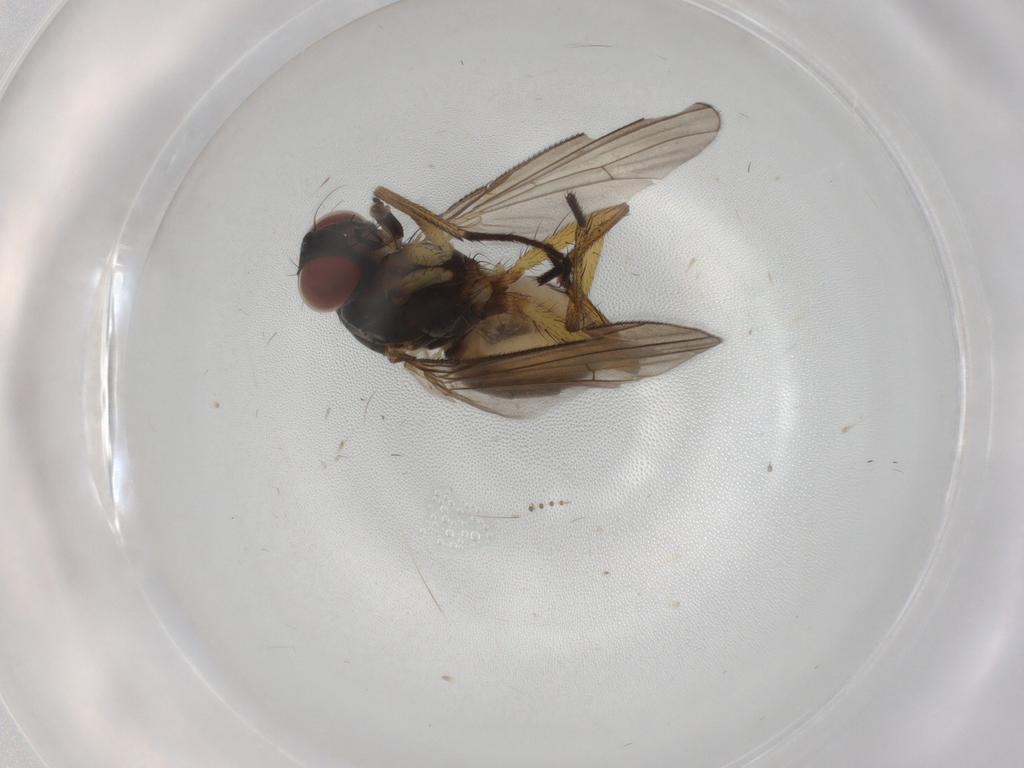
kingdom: Animalia
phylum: Arthropoda
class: Insecta
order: Diptera
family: Muscidae
